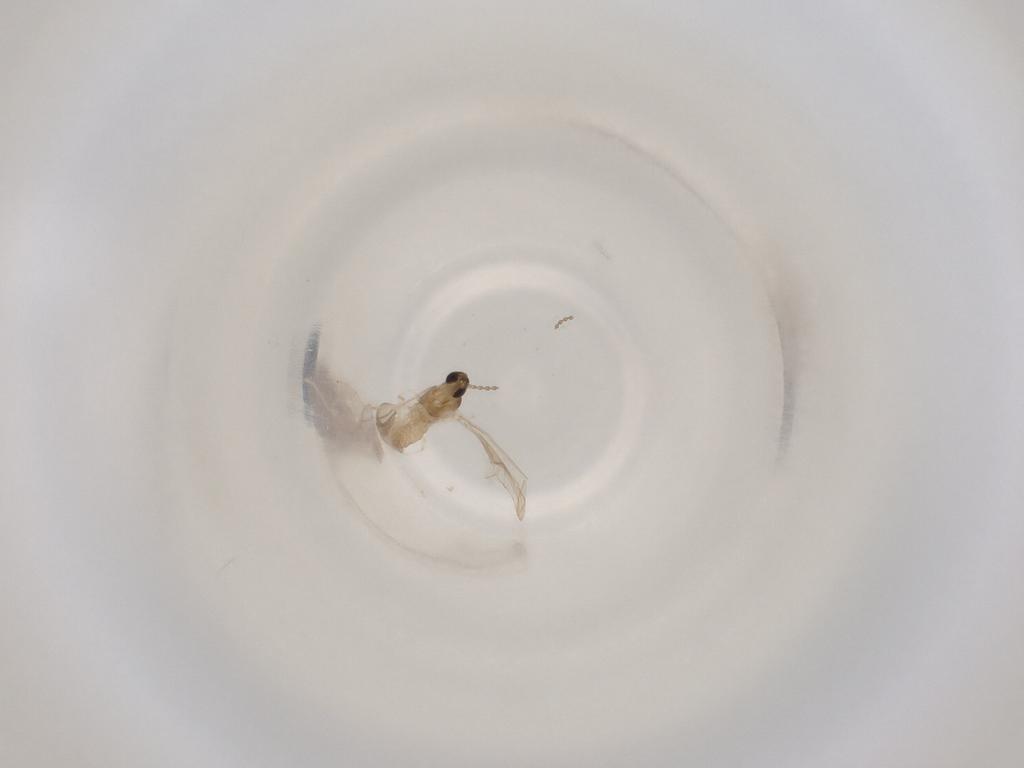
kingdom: Animalia
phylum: Arthropoda
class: Insecta
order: Diptera
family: Cecidomyiidae
